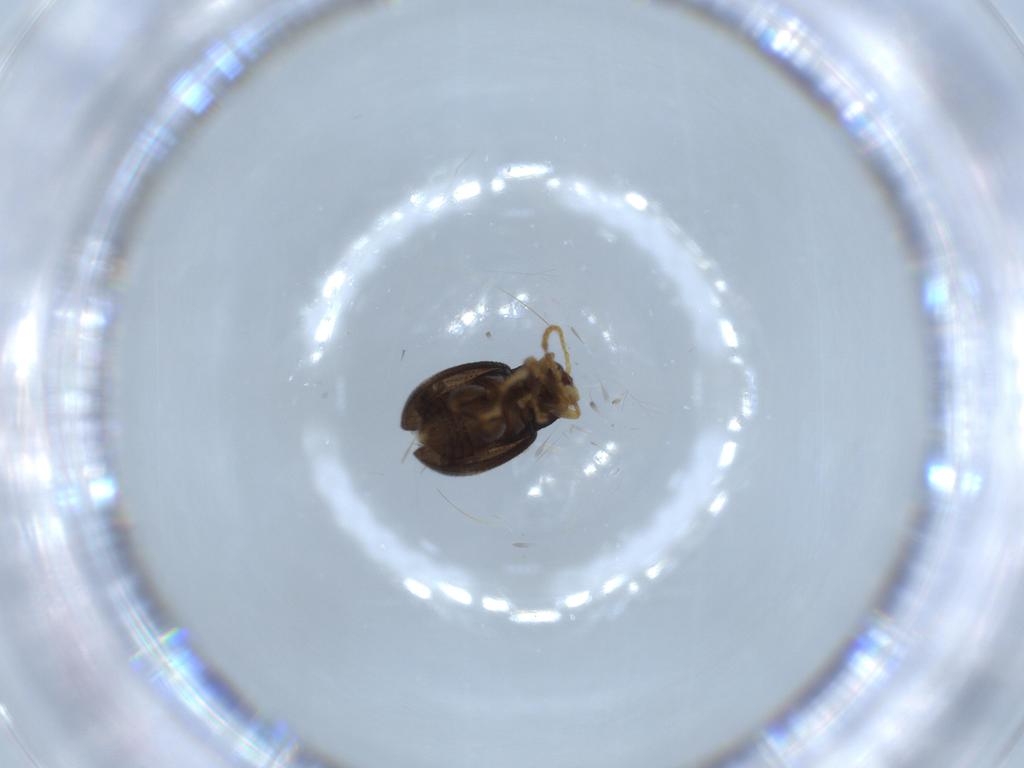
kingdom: Animalia
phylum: Arthropoda
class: Insecta
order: Coleoptera
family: Chrysomelidae
